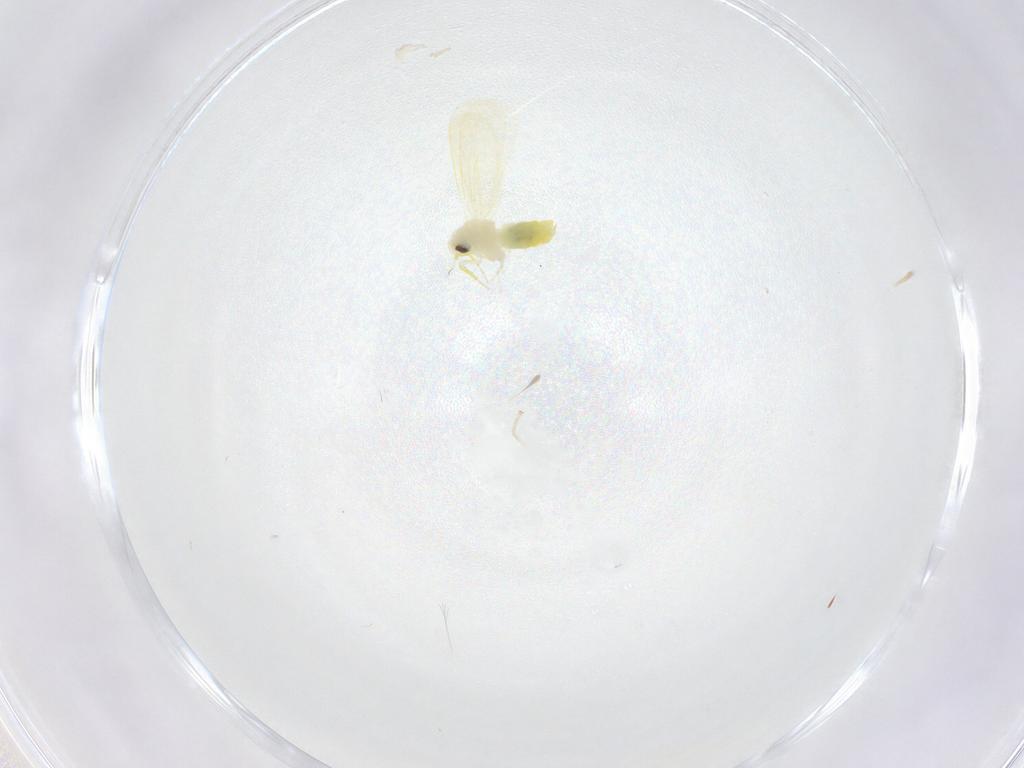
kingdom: Animalia
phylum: Arthropoda
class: Insecta
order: Hemiptera
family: Aleyrodidae
